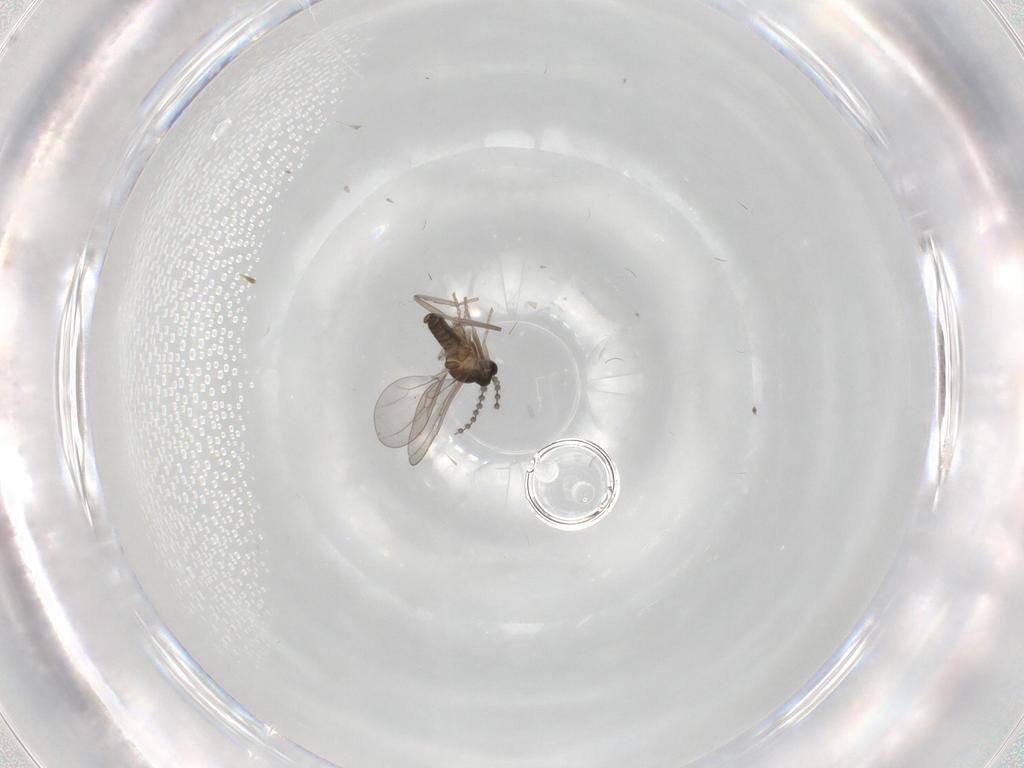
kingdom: Animalia
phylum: Arthropoda
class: Insecta
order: Diptera
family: Cecidomyiidae
